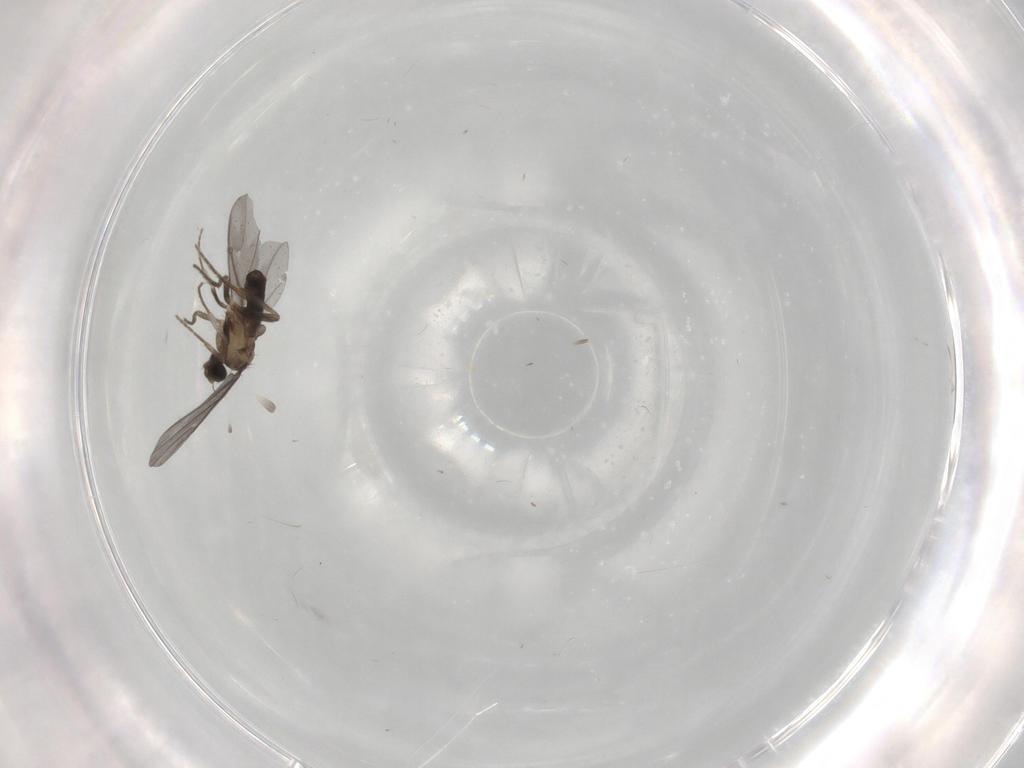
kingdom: Animalia
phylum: Arthropoda
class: Insecta
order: Diptera
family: Phoridae
